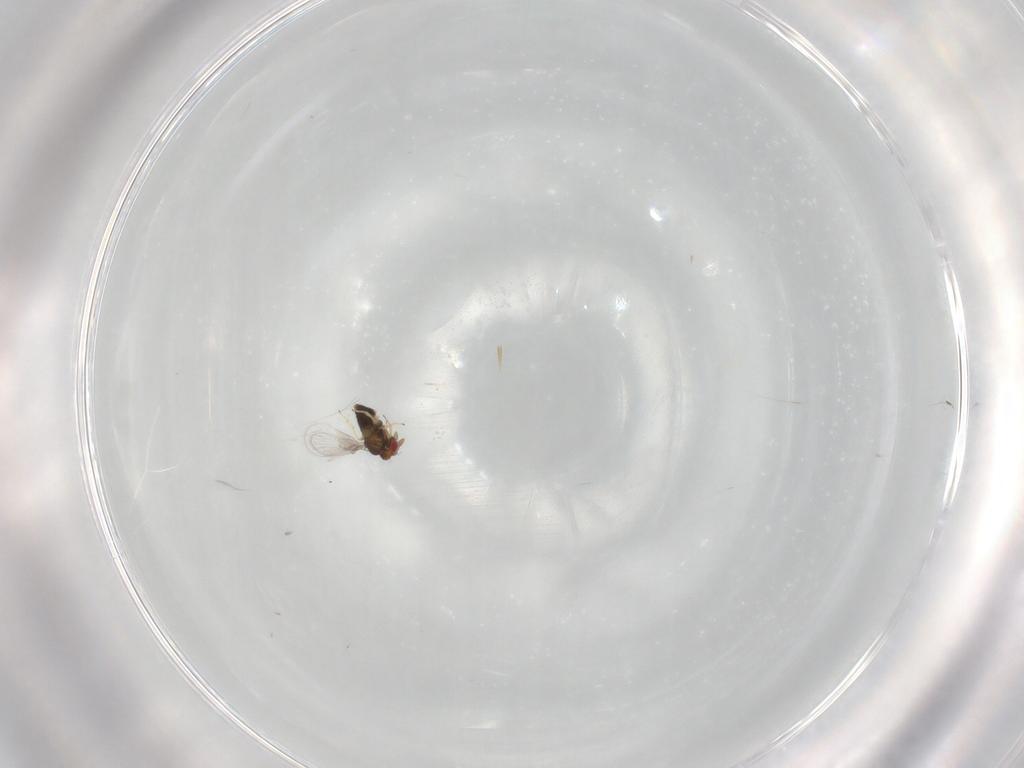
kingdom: Animalia
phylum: Arthropoda
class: Insecta
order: Hymenoptera
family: Trichogrammatidae
